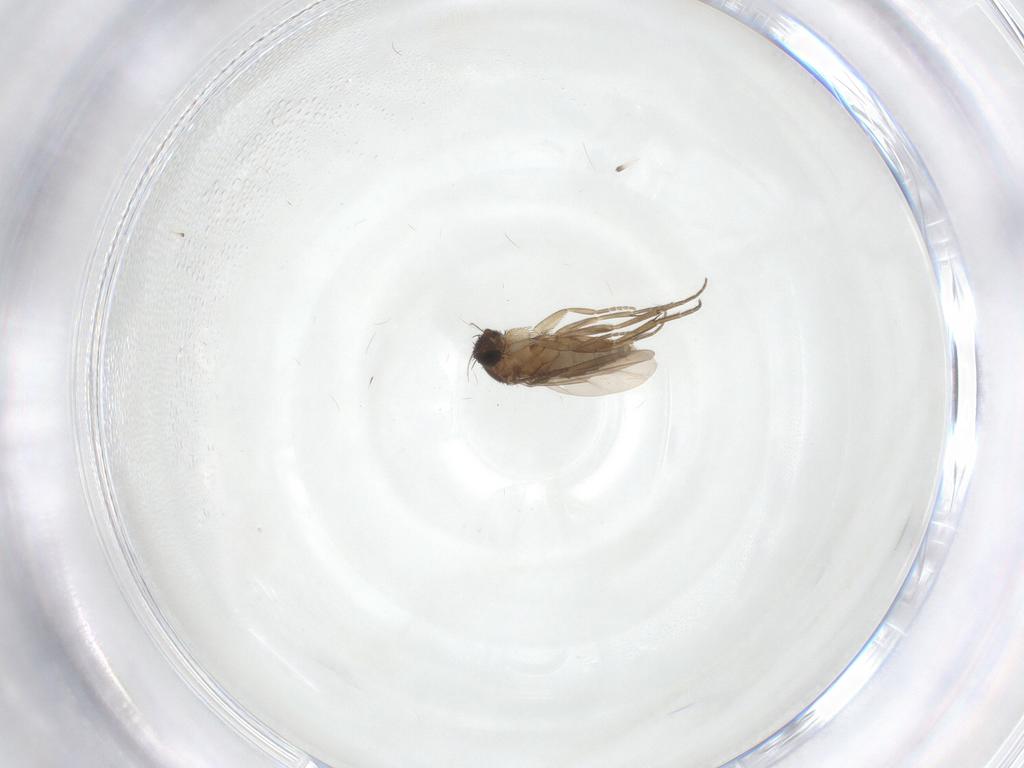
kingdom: Animalia
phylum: Arthropoda
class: Insecta
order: Diptera
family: Phoridae
